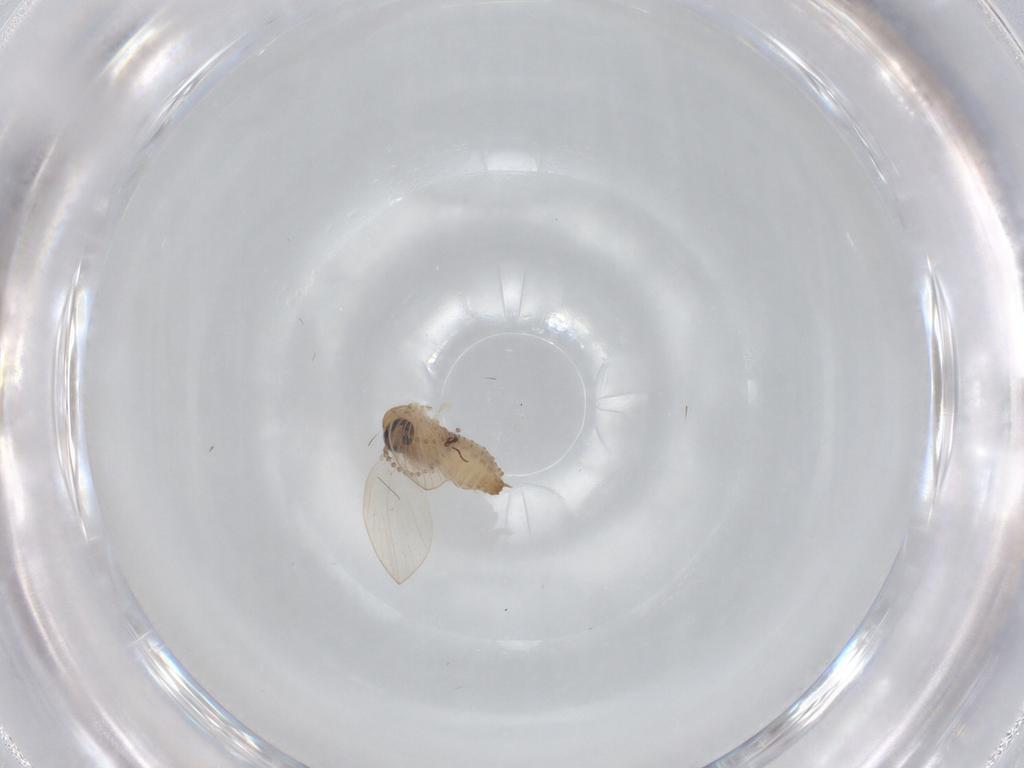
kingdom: Animalia
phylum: Arthropoda
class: Insecta
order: Diptera
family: Psychodidae
